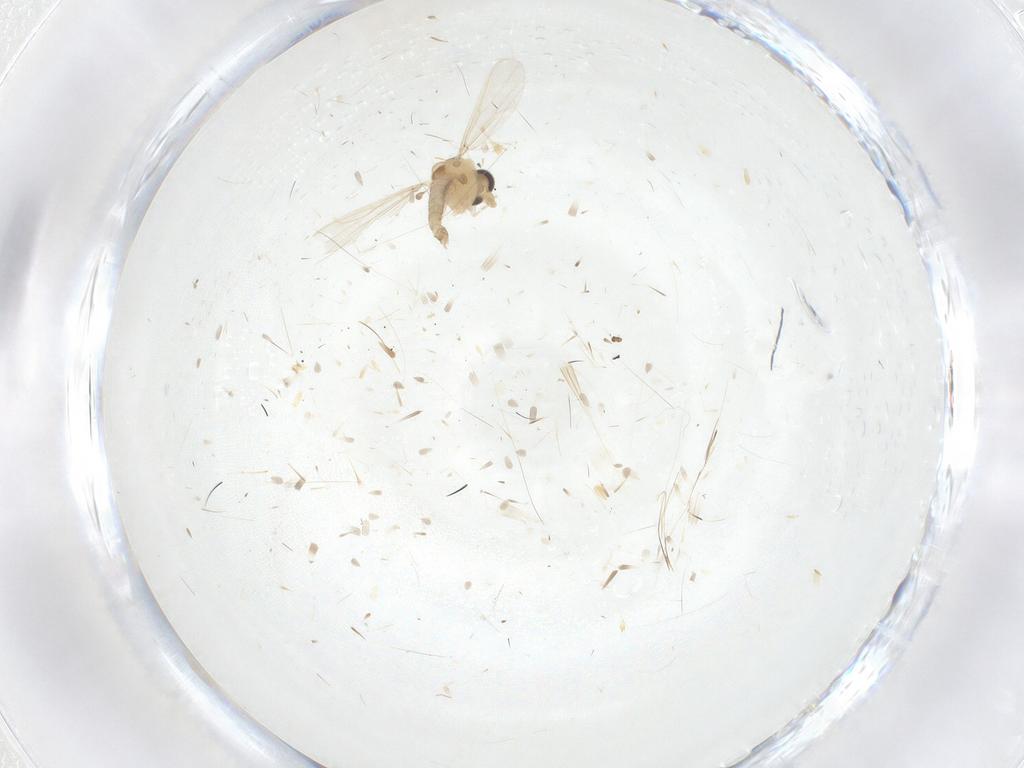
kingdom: Animalia
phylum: Arthropoda
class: Insecta
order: Diptera
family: Chironomidae
